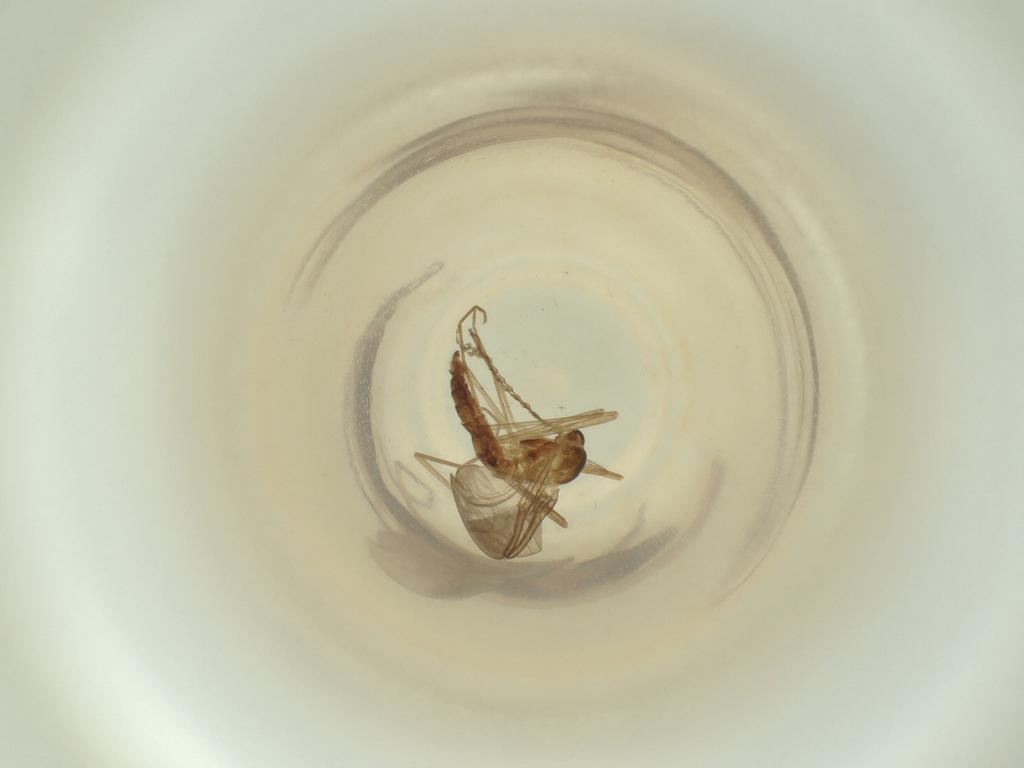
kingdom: Animalia
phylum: Arthropoda
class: Insecta
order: Diptera
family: Cecidomyiidae
